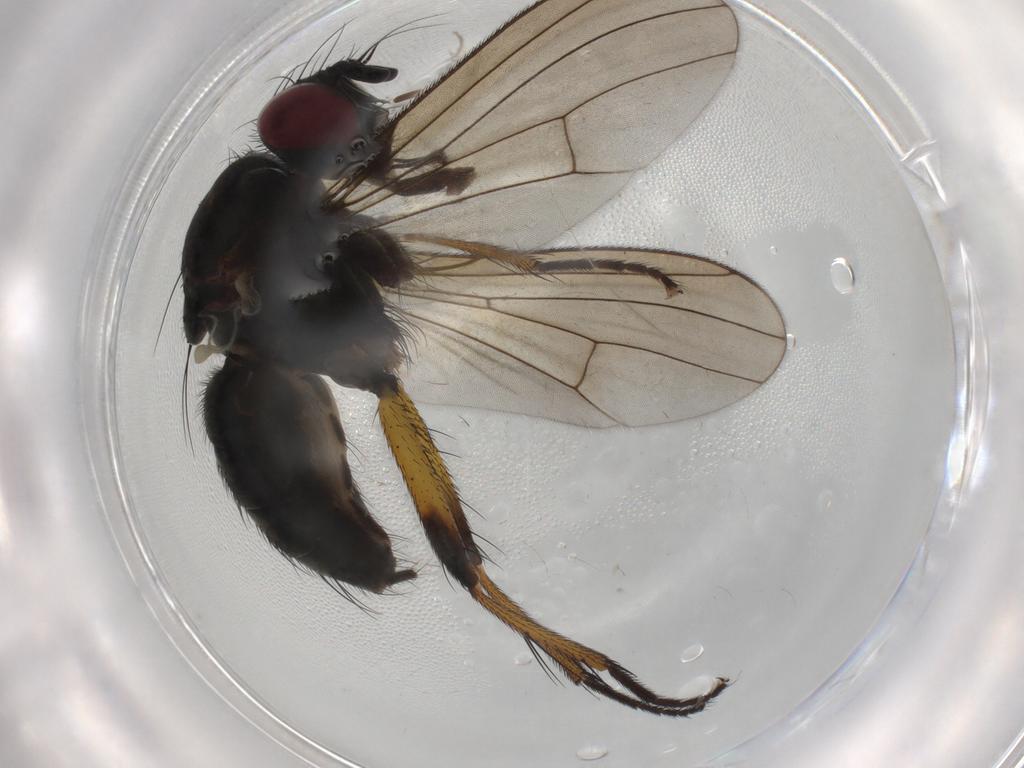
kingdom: Animalia
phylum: Arthropoda
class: Insecta
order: Diptera
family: Muscidae
